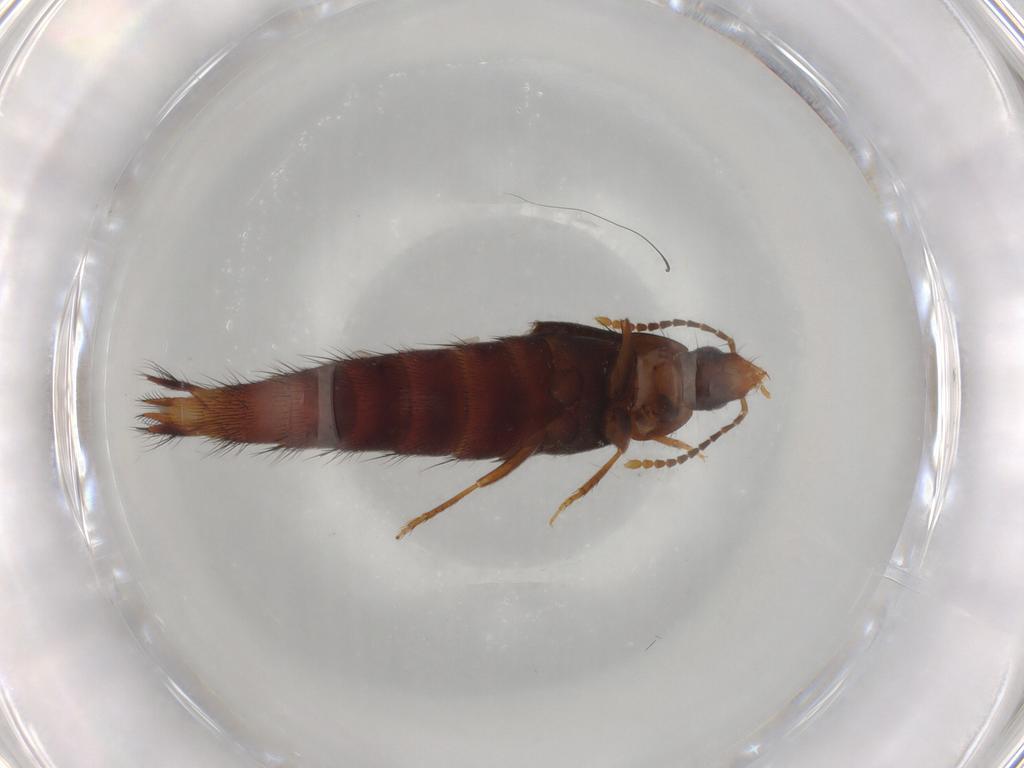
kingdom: Animalia
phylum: Arthropoda
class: Insecta
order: Coleoptera
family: Staphylinidae
